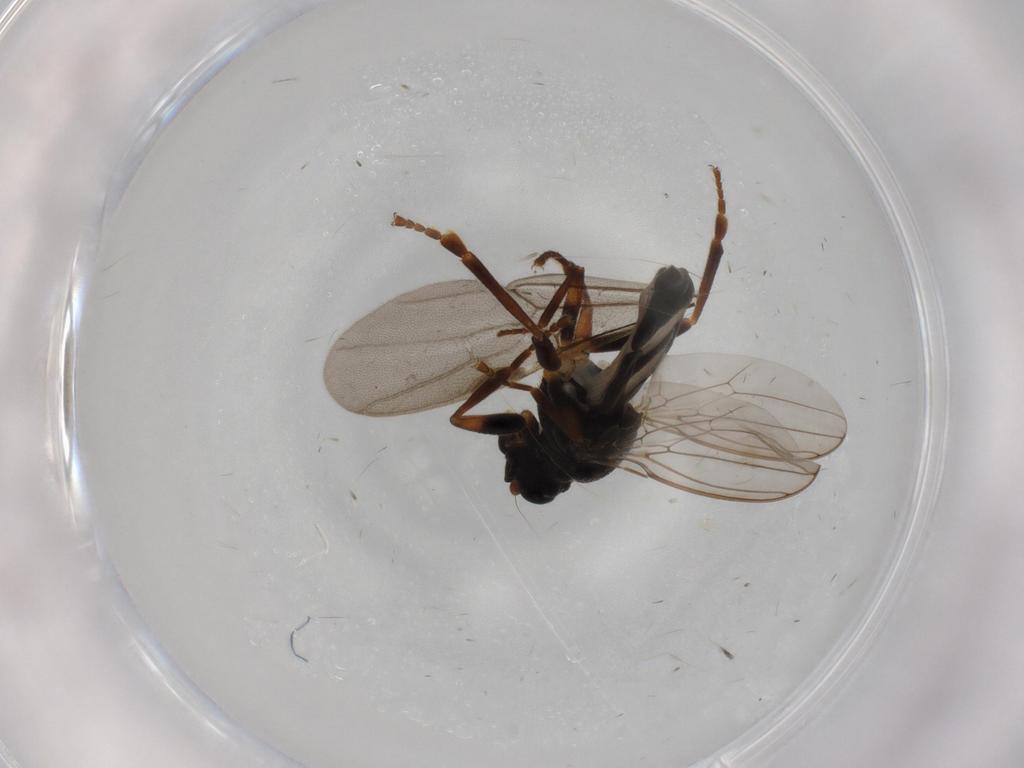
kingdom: Animalia
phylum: Arthropoda
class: Insecta
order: Diptera
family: Sphaeroceridae
